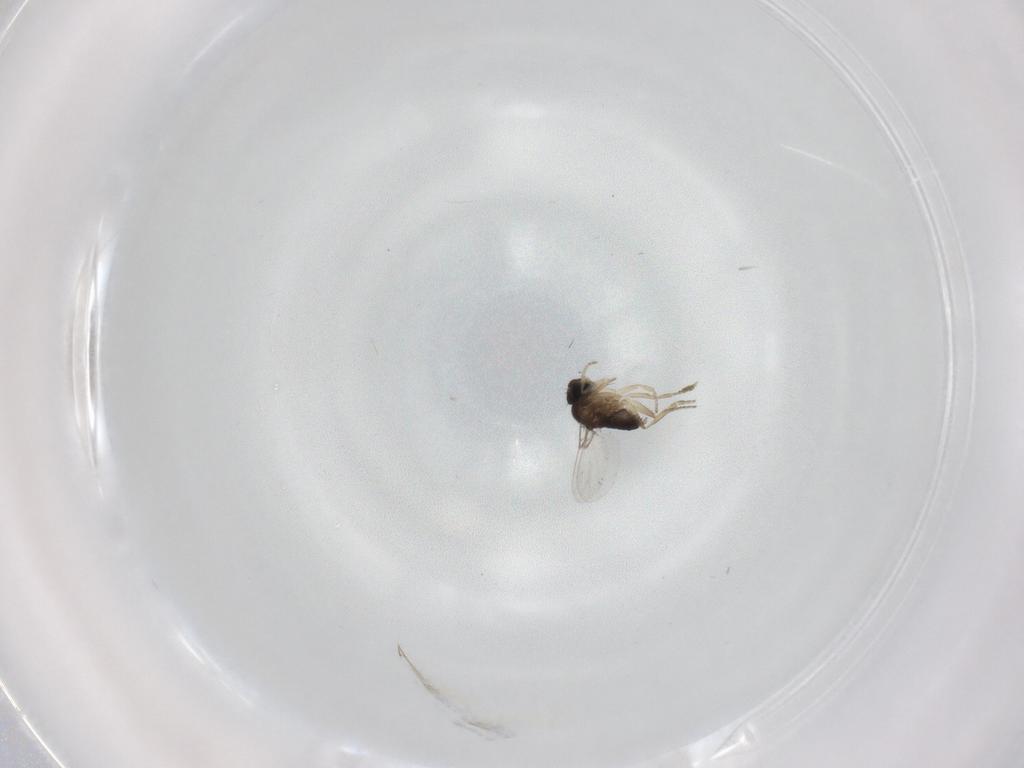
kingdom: Animalia
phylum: Arthropoda
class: Insecta
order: Diptera
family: Phoridae
